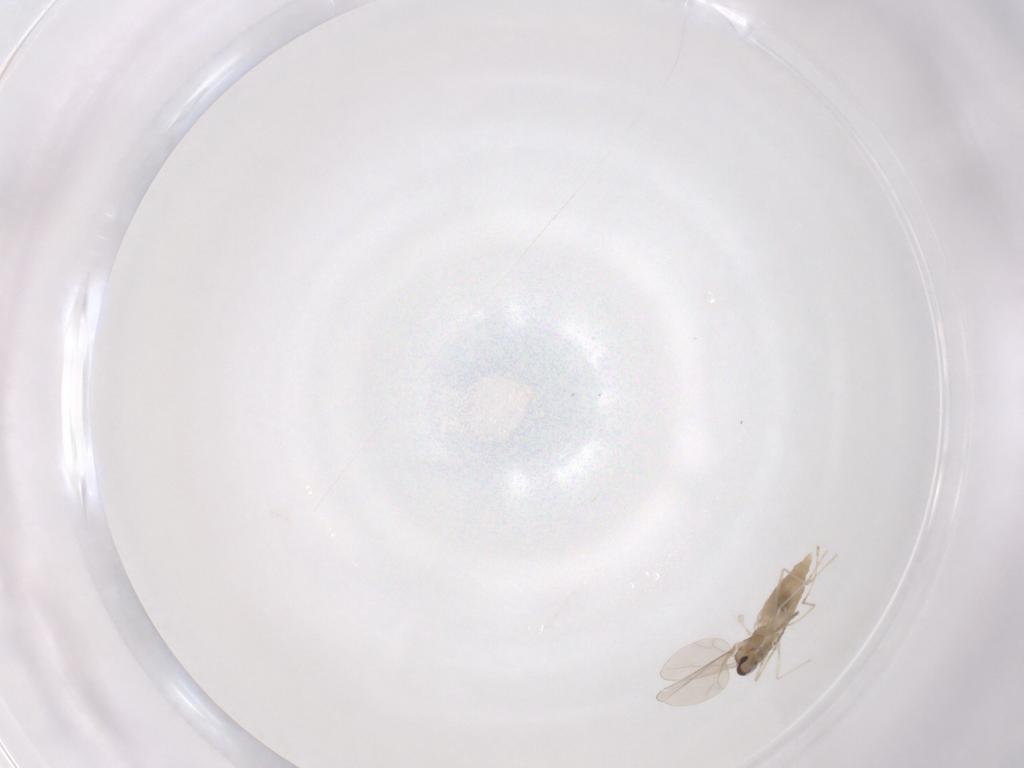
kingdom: Animalia
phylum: Arthropoda
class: Insecta
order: Diptera
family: Cecidomyiidae
